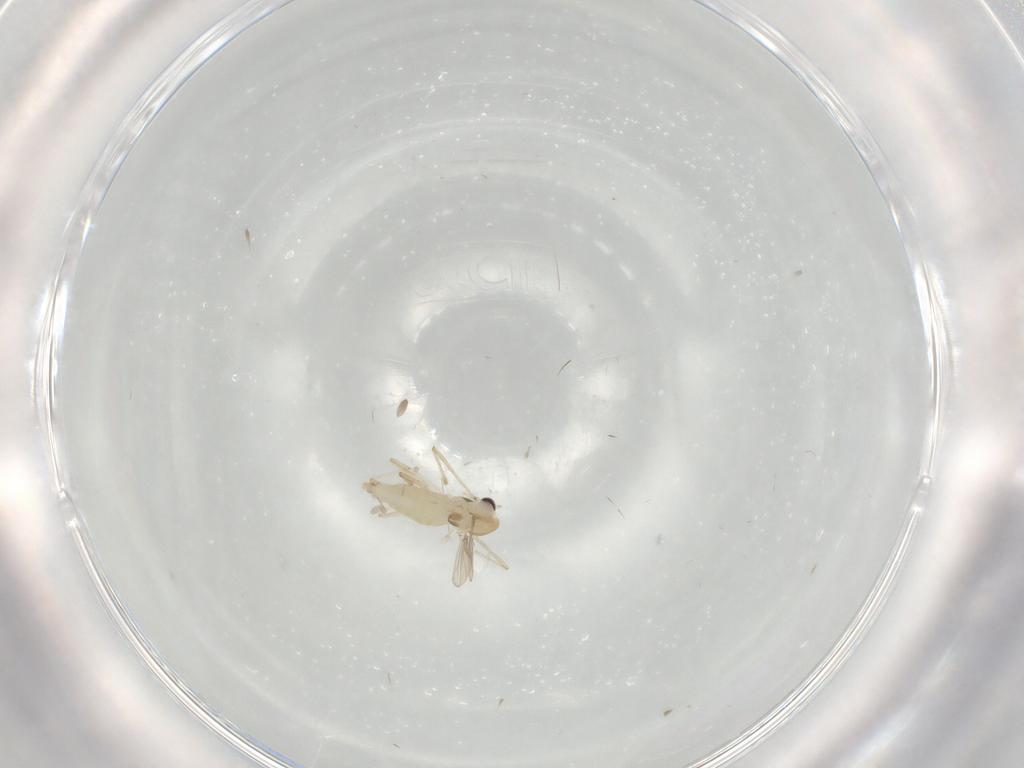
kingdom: Animalia
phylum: Arthropoda
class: Insecta
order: Diptera
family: Chironomidae
